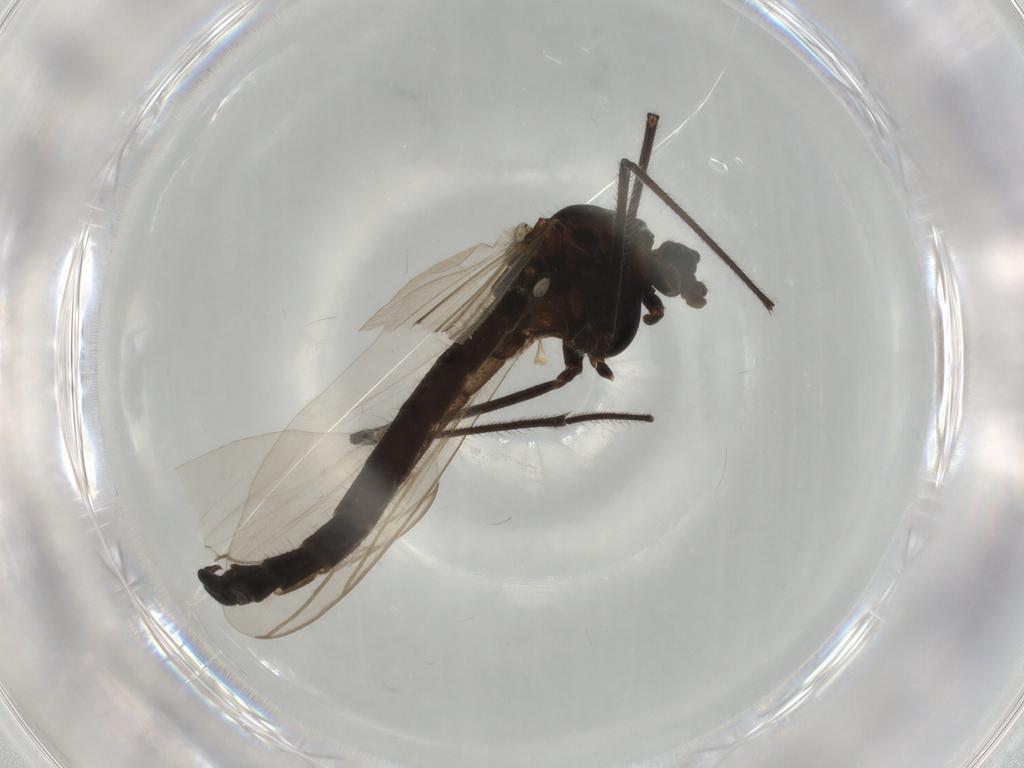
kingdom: Animalia
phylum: Arthropoda
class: Insecta
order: Diptera
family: Chironomidae
